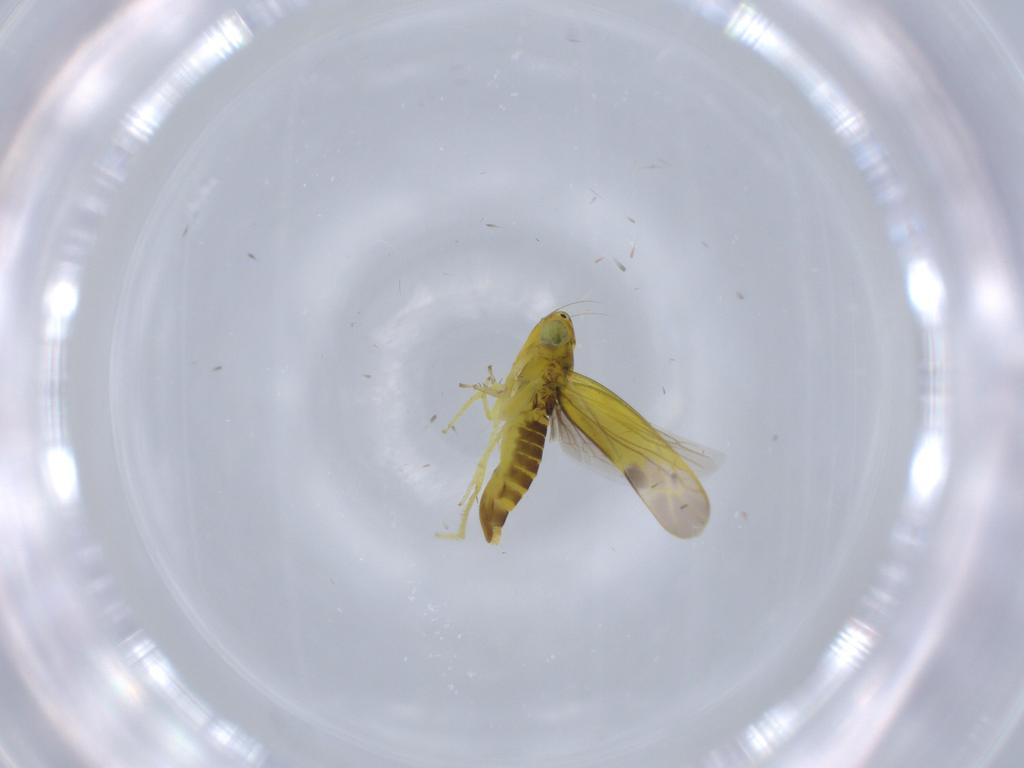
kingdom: Animalia
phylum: Arthropoda
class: Insecta
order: Hemiptera
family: Cicadellidae
